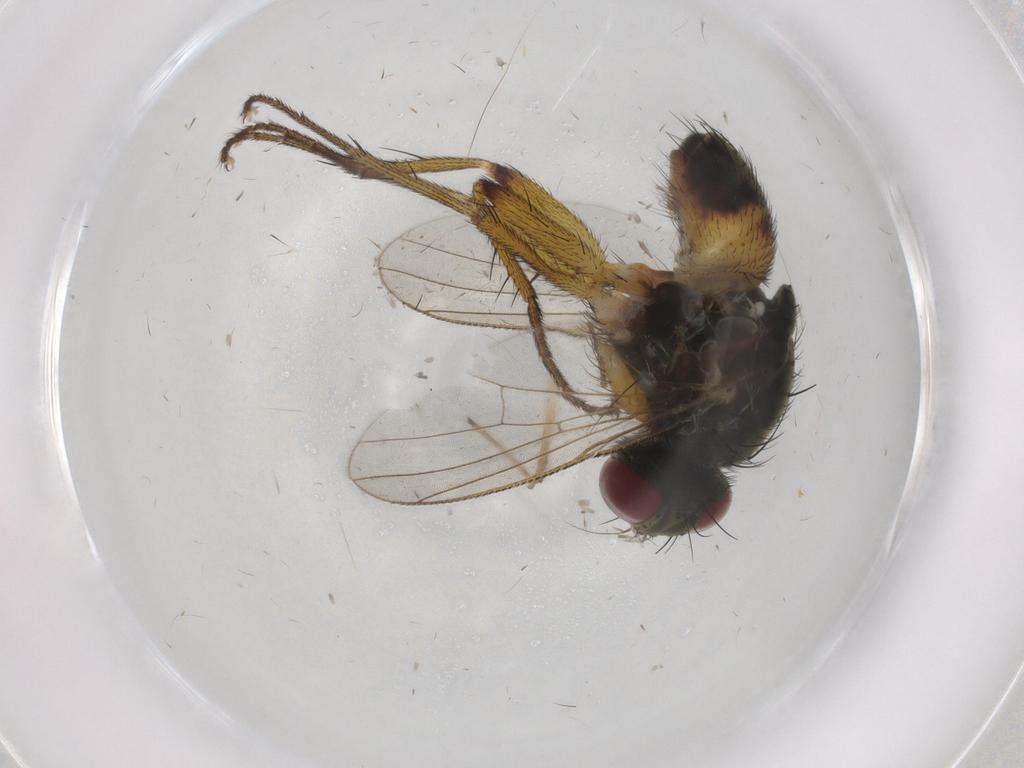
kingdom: Animalia
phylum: Arthropoda
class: Insecta
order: Diptera
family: Muscidae
